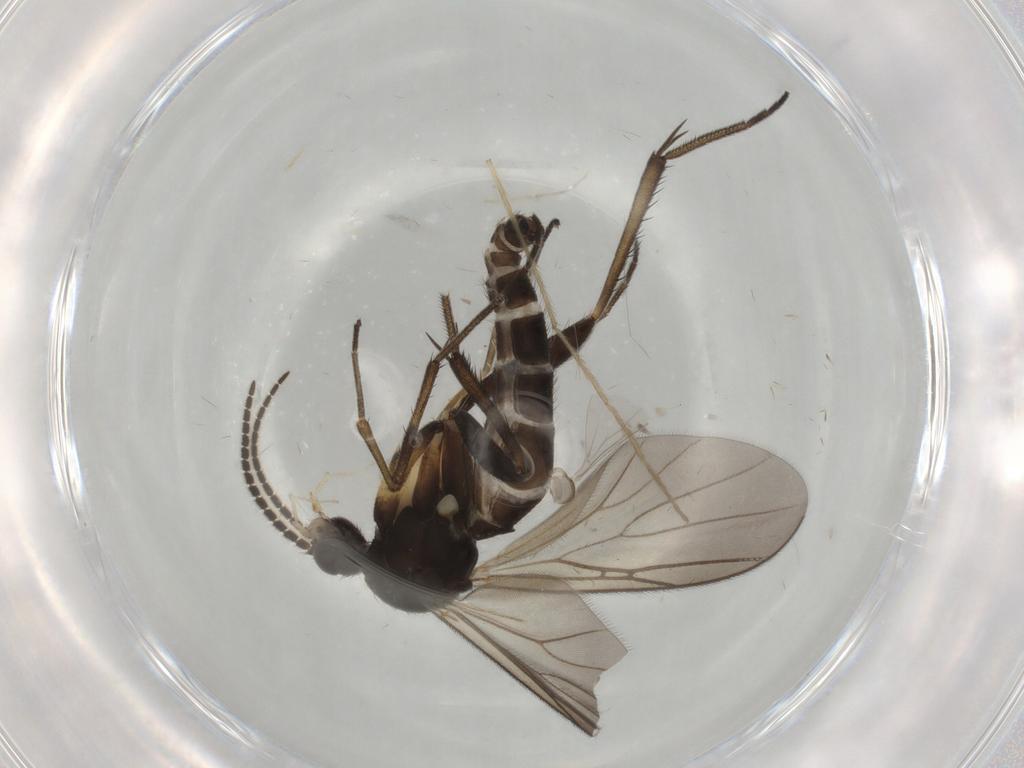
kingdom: Animalia
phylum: Arthropoda
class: Insecta
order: Diptera
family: Mycetophilidae
